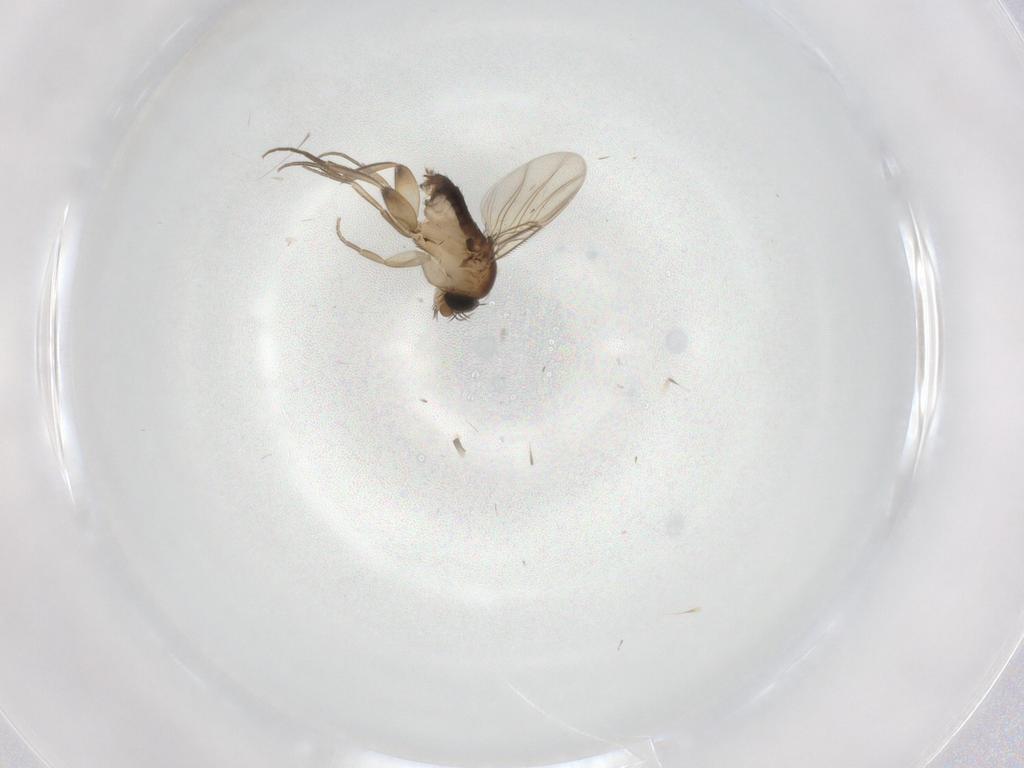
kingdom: Animalia
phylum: Arthropoda
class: Insecta
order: Diptera
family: Phoridae
